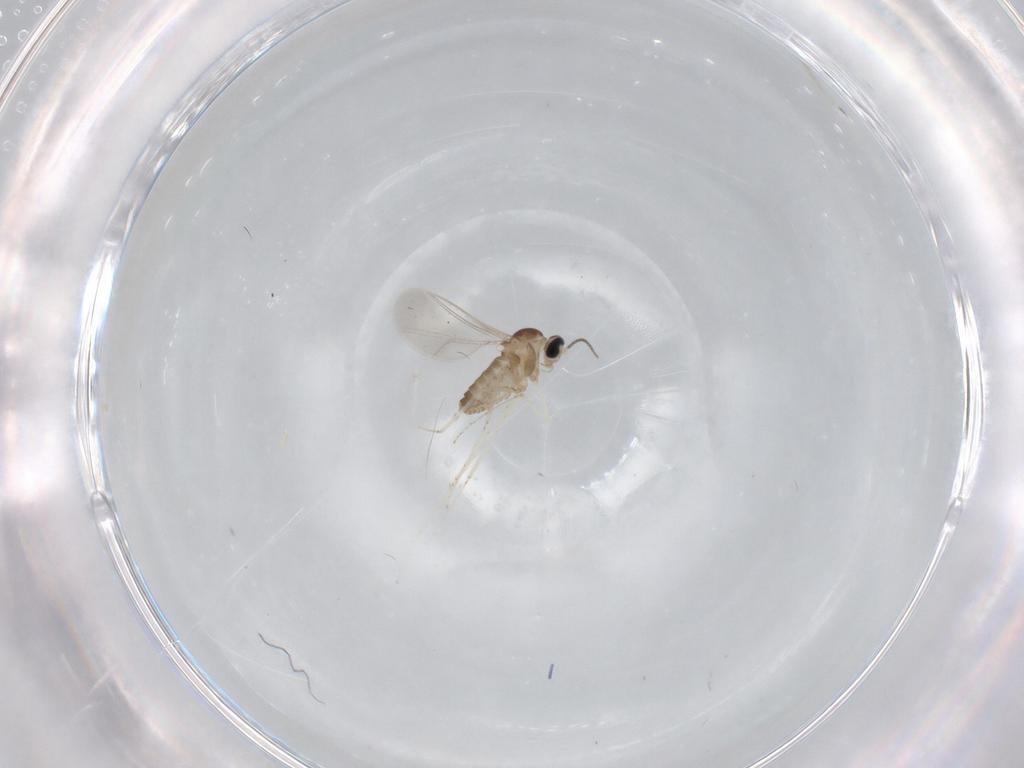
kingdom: Animalia
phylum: Arthropoda
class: Insecta
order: Diptera
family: Cecidomyiidae
